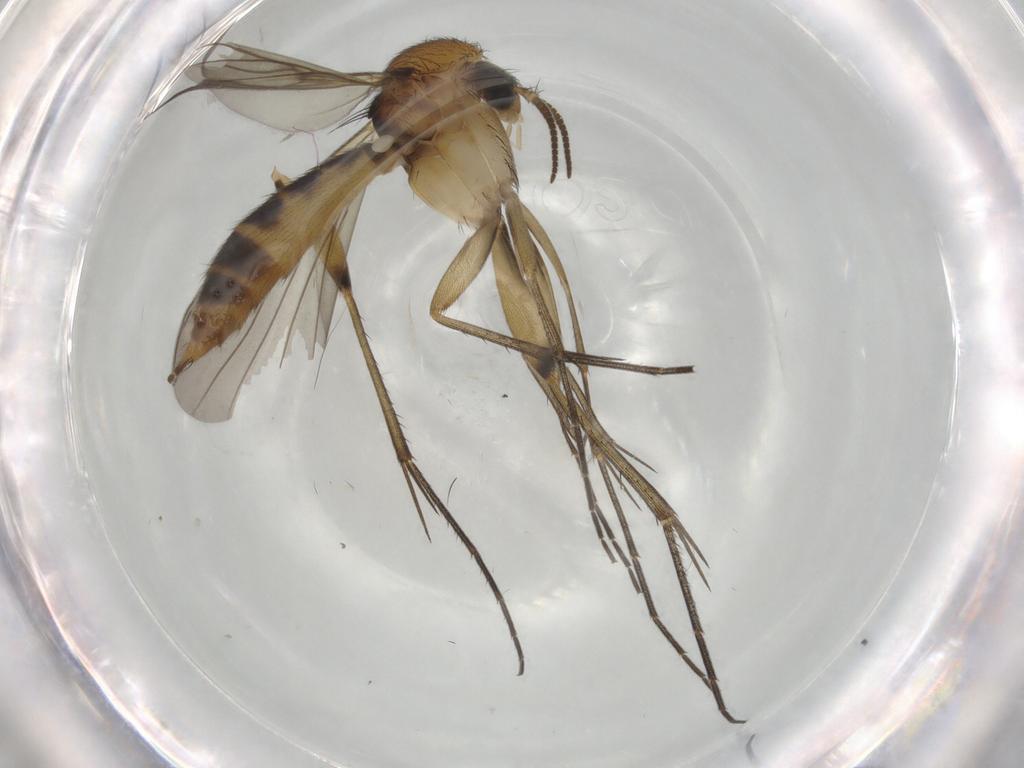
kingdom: Animalia
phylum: Arthropoda
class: Insecta
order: Diptera
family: Mycetophilidae
